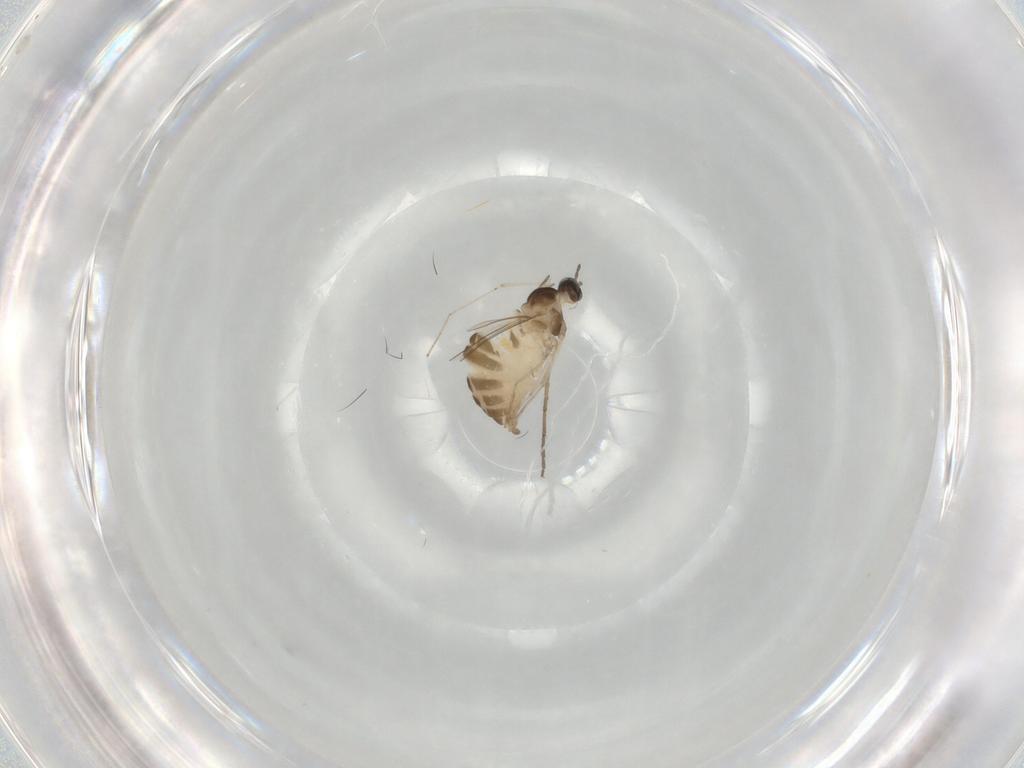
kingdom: Animalia
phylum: Arthropoda
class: Insecta
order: Diptera
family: Cecidomyiidae
